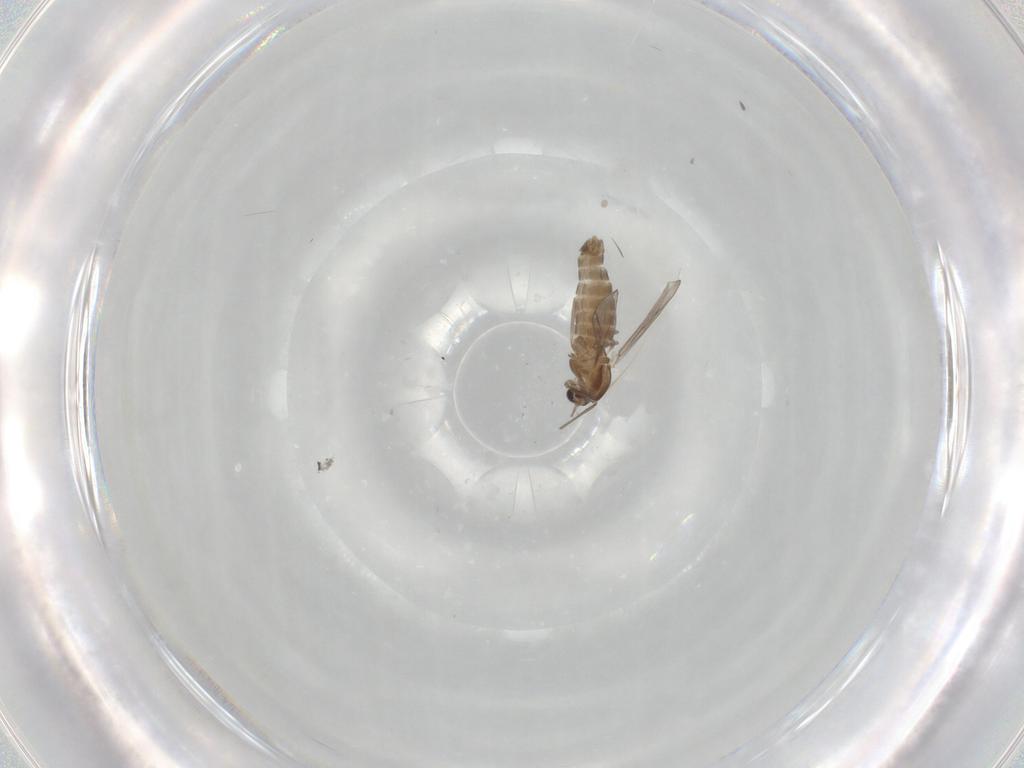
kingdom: Animalia
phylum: Arthropoda
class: Insecta
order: Diptera
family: Chironomidae
